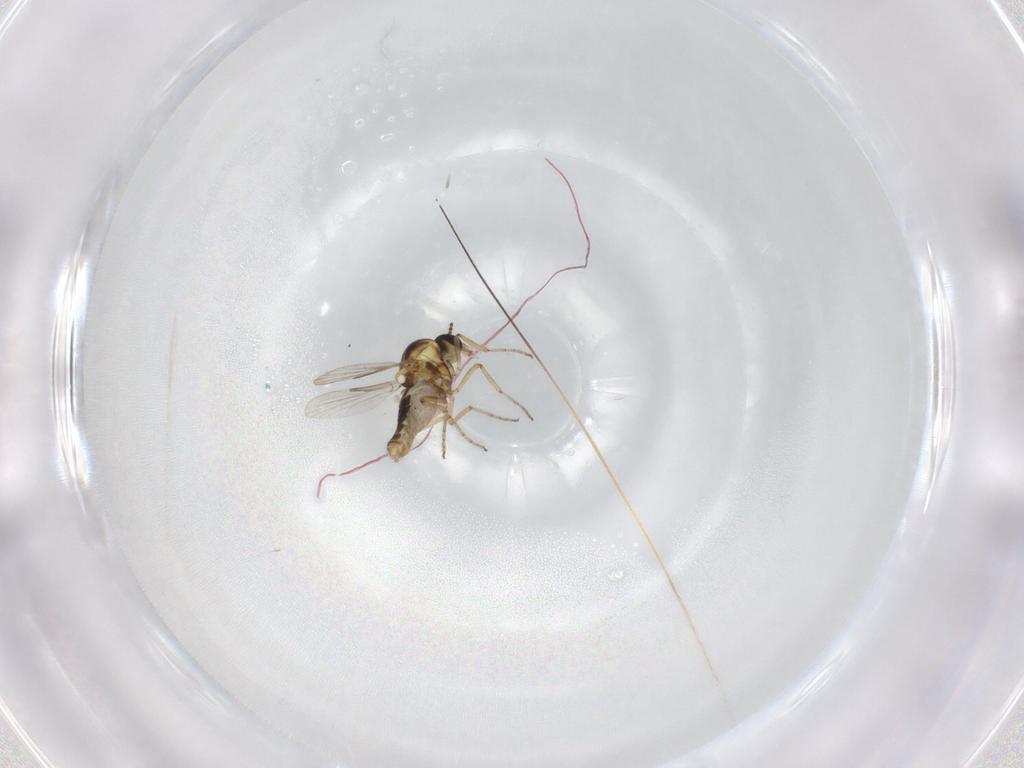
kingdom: Animalia
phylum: Arthropoda
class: Insecta
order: Diptera
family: Ceratopogonidae
